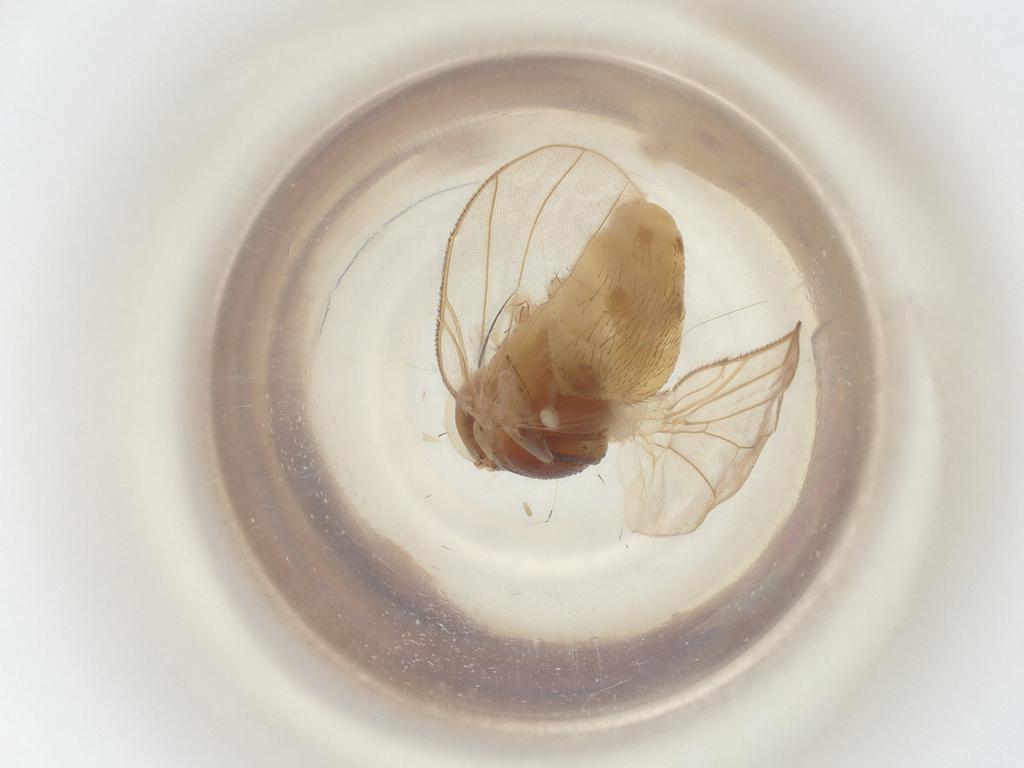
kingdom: Animalia
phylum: Arthropoda
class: Insecta
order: Diptera
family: Muscidae
